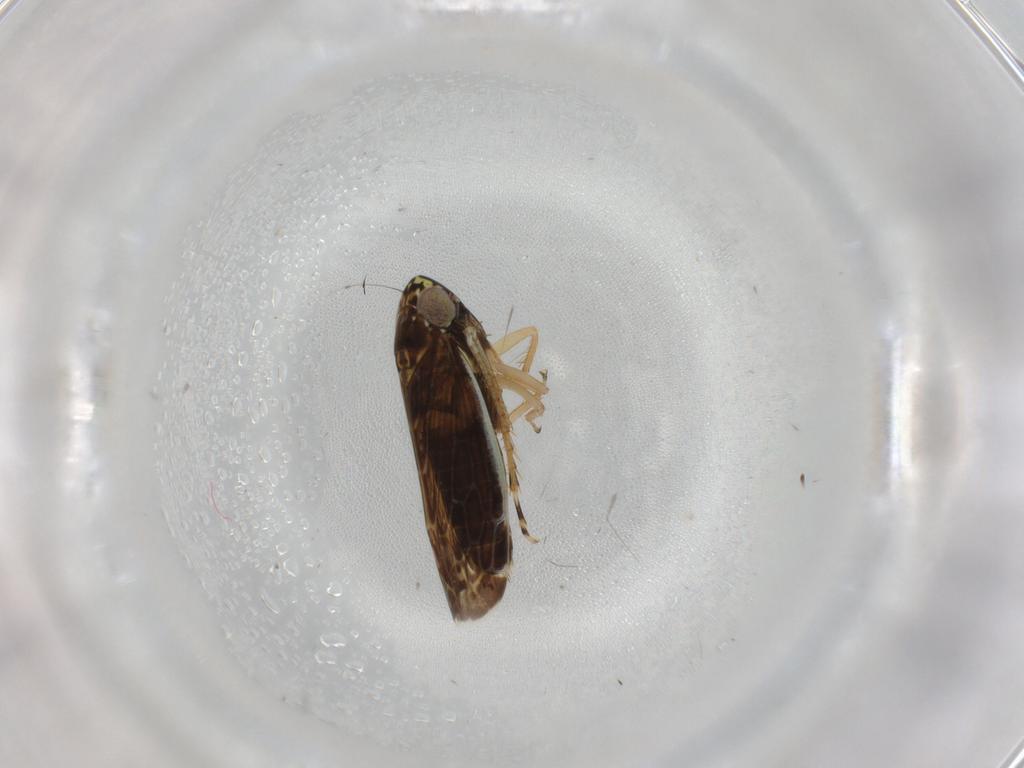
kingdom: Animalia
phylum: Arthropoda
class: Insecta
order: Hemiptera
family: Cicadellidae
